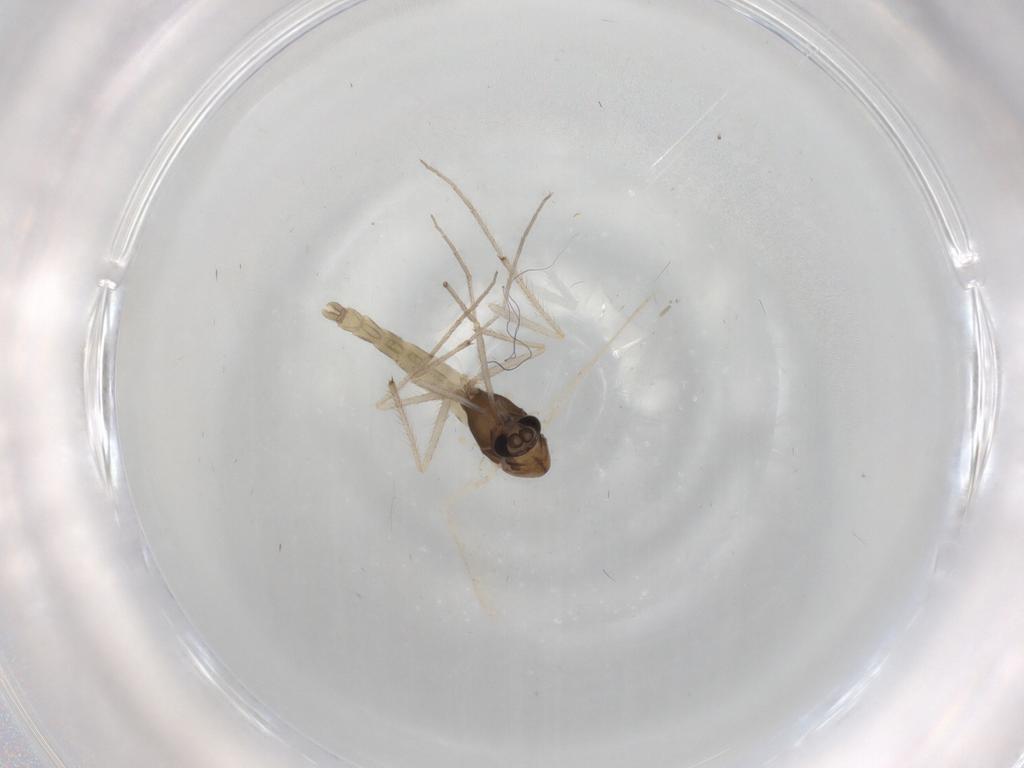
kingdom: Animalia
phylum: Arthropoda
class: Insecta
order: Diptera
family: Chironomidae
